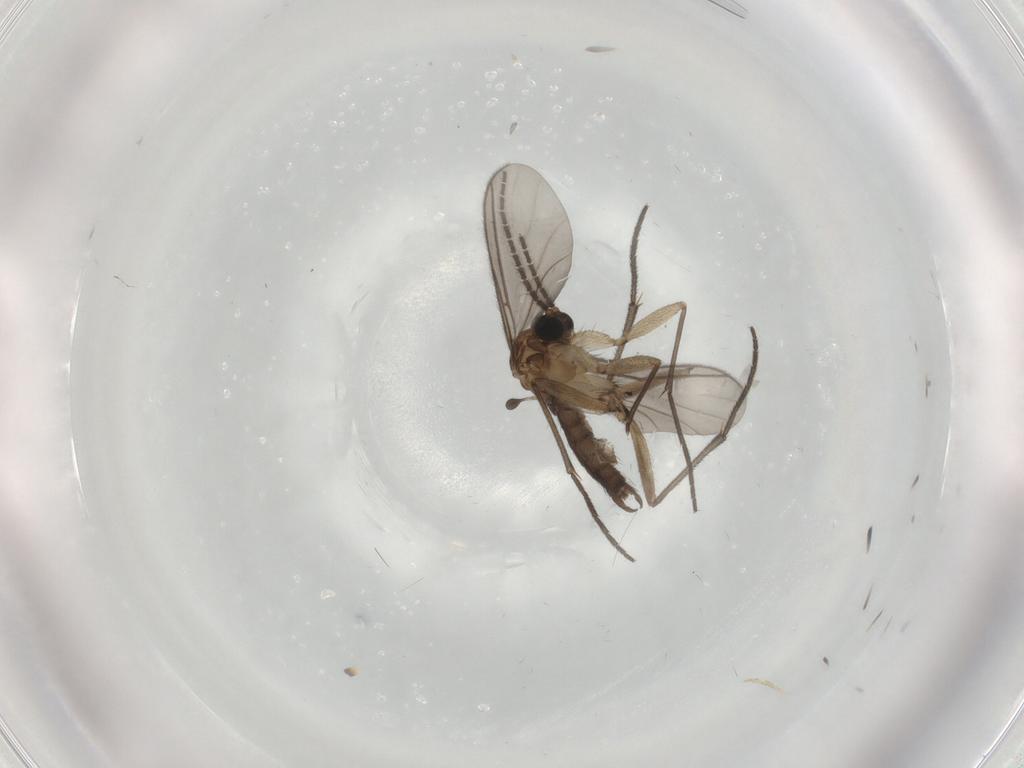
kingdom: Animalia
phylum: Arthropoda
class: Insecta
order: Diptera
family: Sciaridae
